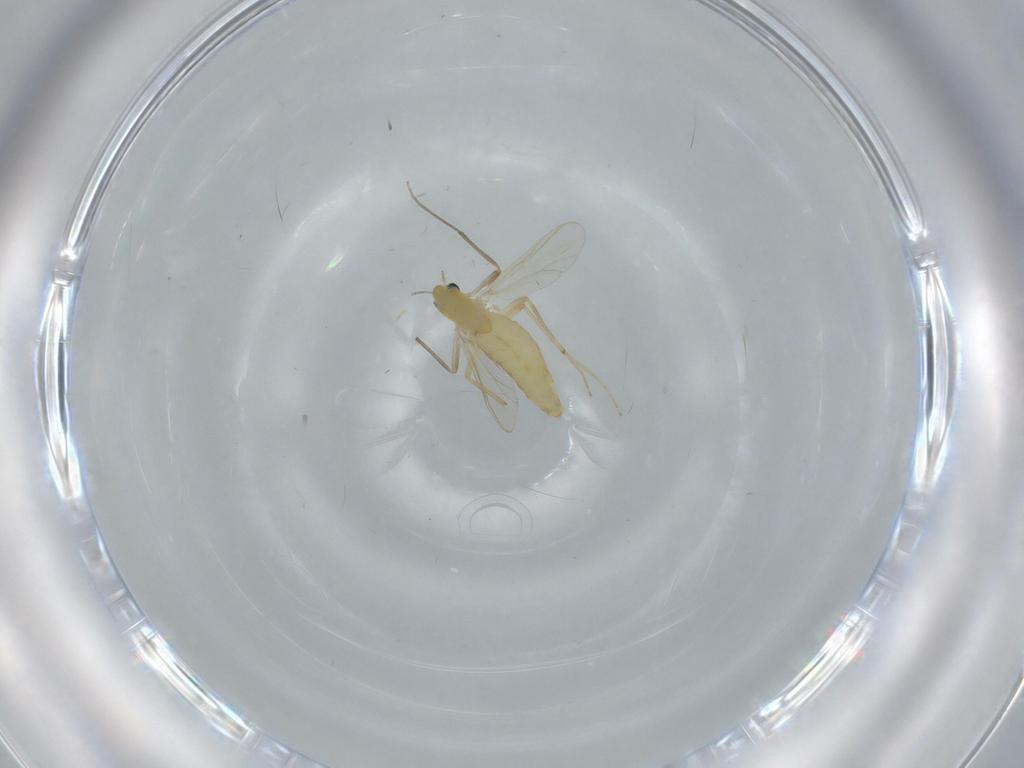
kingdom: Animalia
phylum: Arthropoda
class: Insecta
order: Diptera
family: Chironomidae
